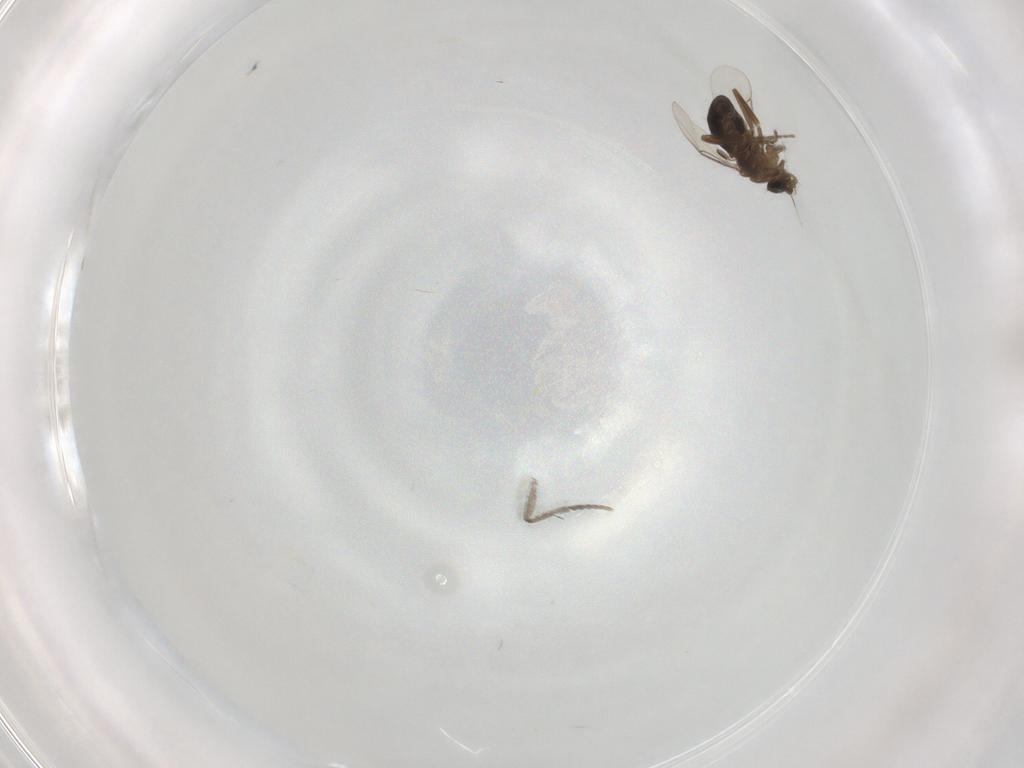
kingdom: Animalia
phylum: Arthropoda
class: Insecta
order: Diptera
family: Sciaridae
